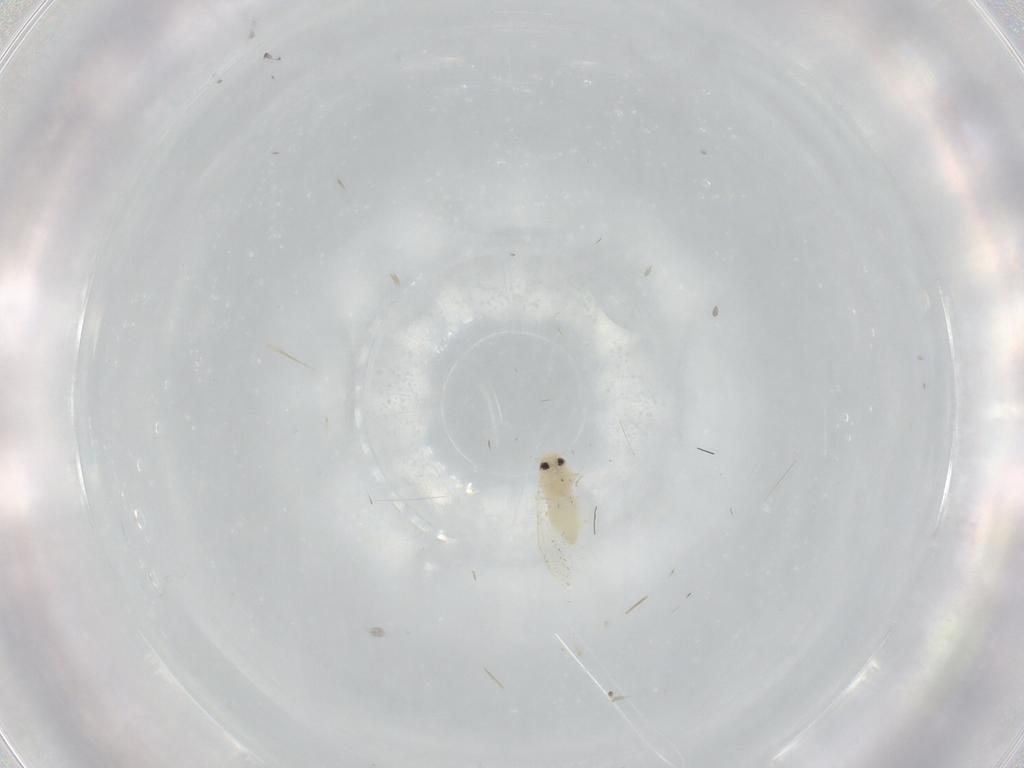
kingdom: Animalia
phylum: Arthropoda
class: Insecta
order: Hemiptera
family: Aleyrodidae
